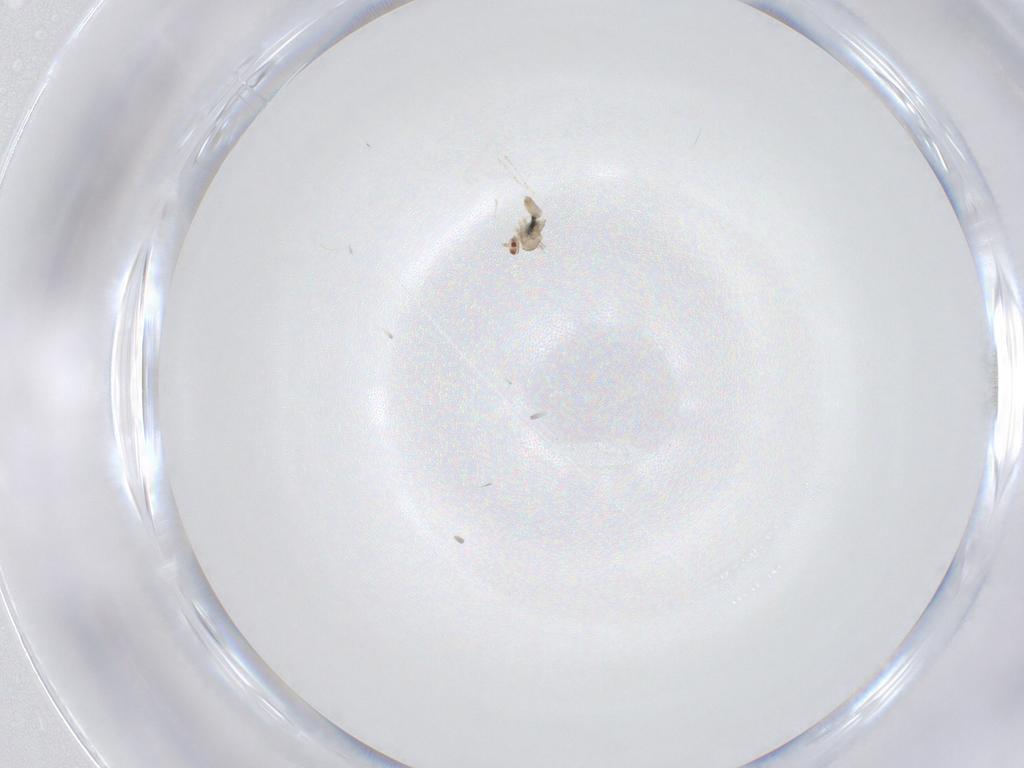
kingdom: Animalia
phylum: Arthropoda
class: Insecta
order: Diptera
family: Cecidomyiidae
